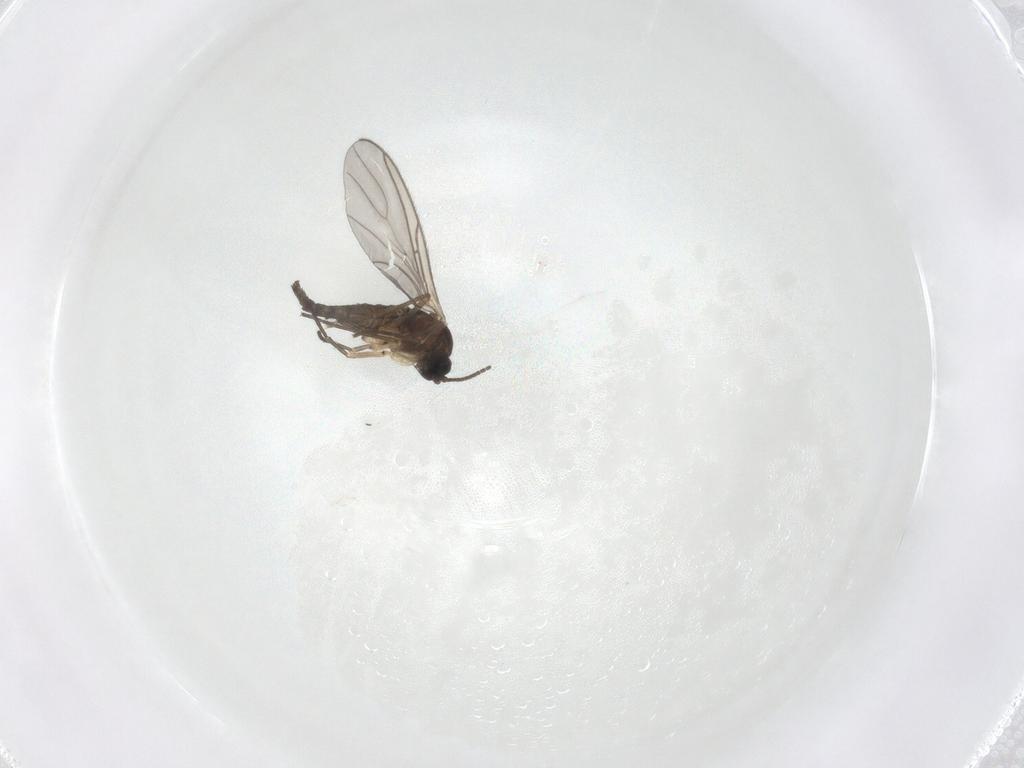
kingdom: Animalia
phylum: Arthropoda
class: Insecta
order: Diptera
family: Sciaridae
